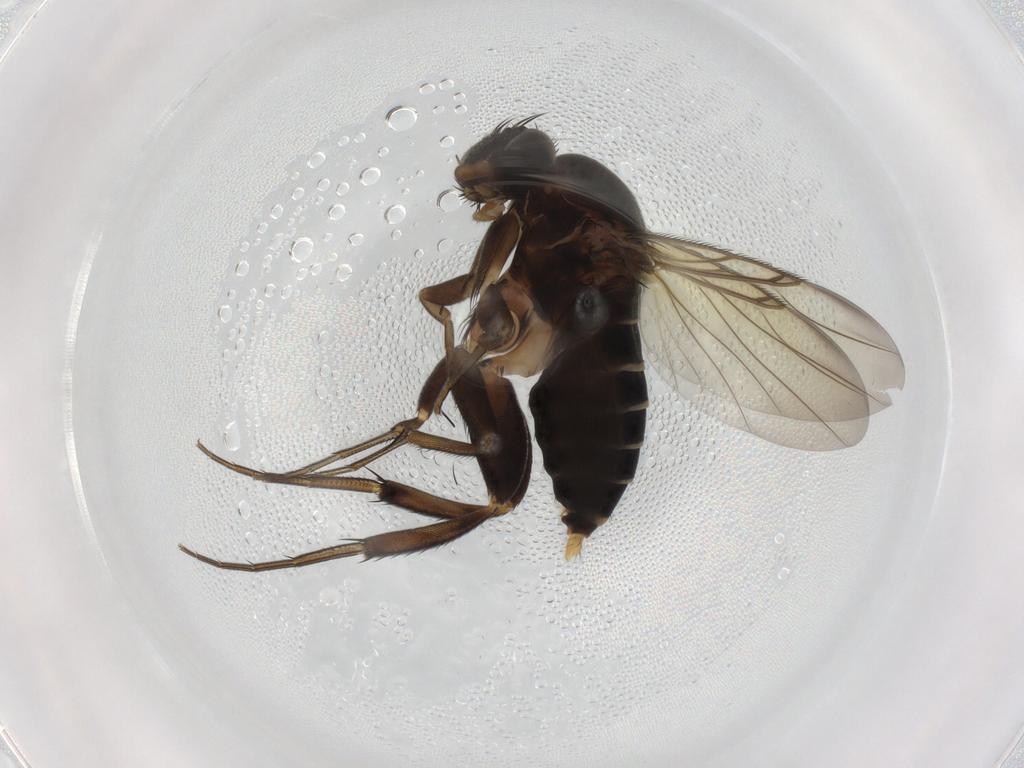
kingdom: Animalia
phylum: Arthropoda
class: Insecta
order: Diptera
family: Phoridae
